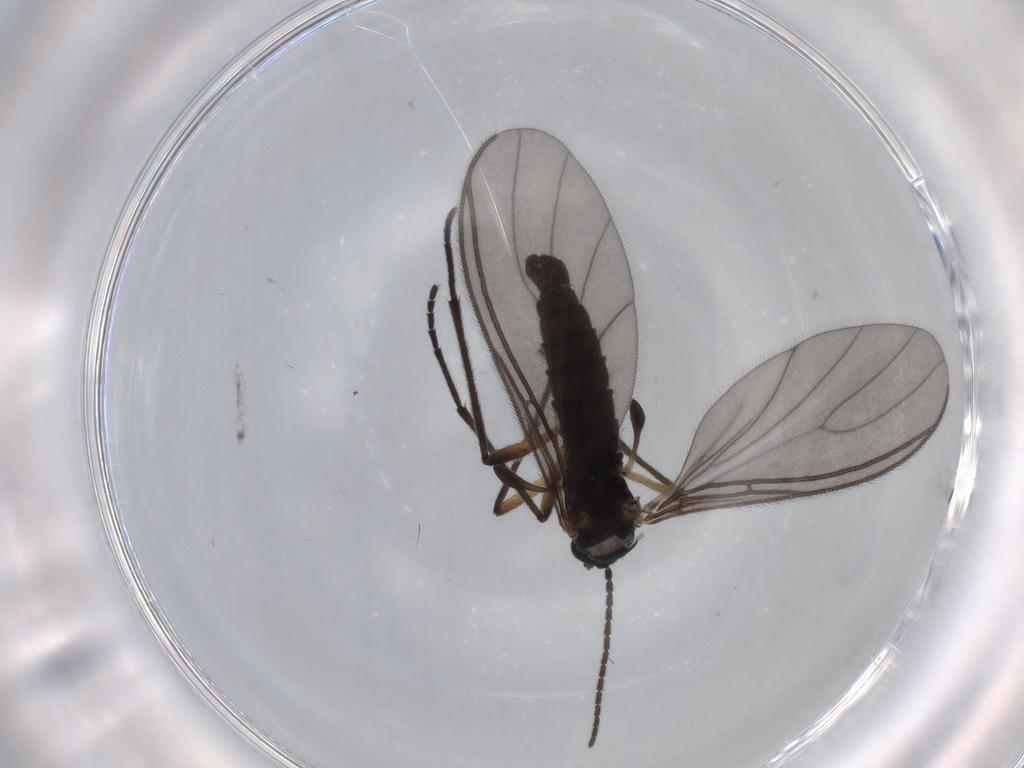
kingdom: Animalia
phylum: Arthropoda
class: Insecta
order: Diptera
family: Sciaridae
